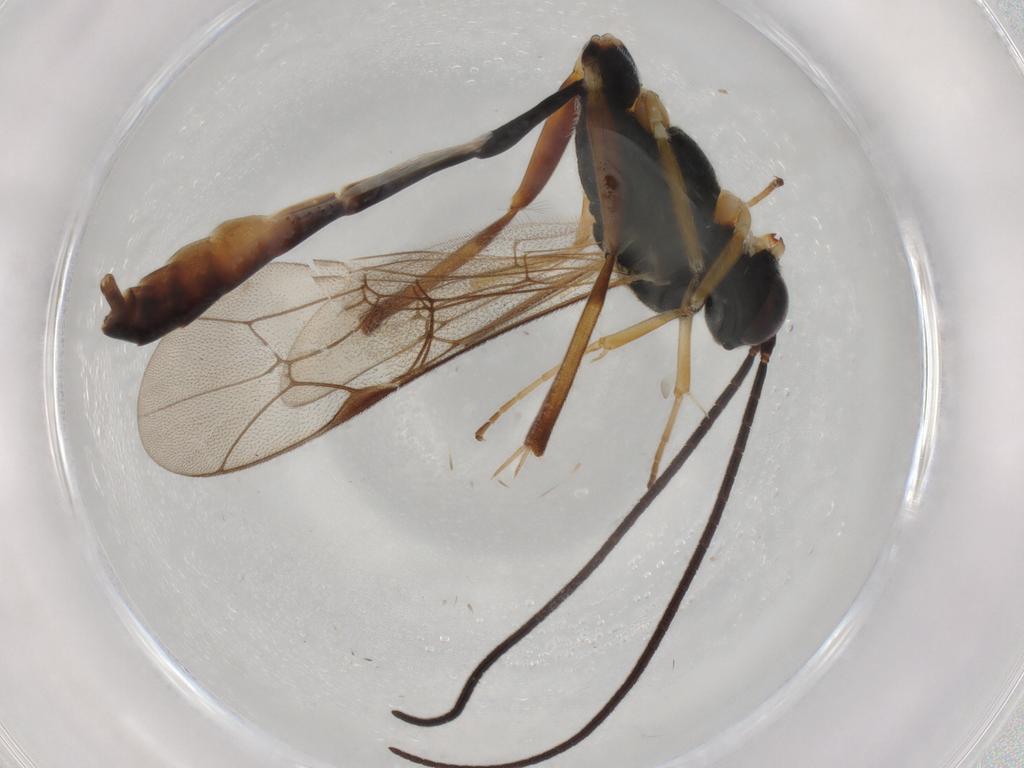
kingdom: Animalia
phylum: Arthropoda
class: Insecta
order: Hymenoptera
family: Ichneumonidae
